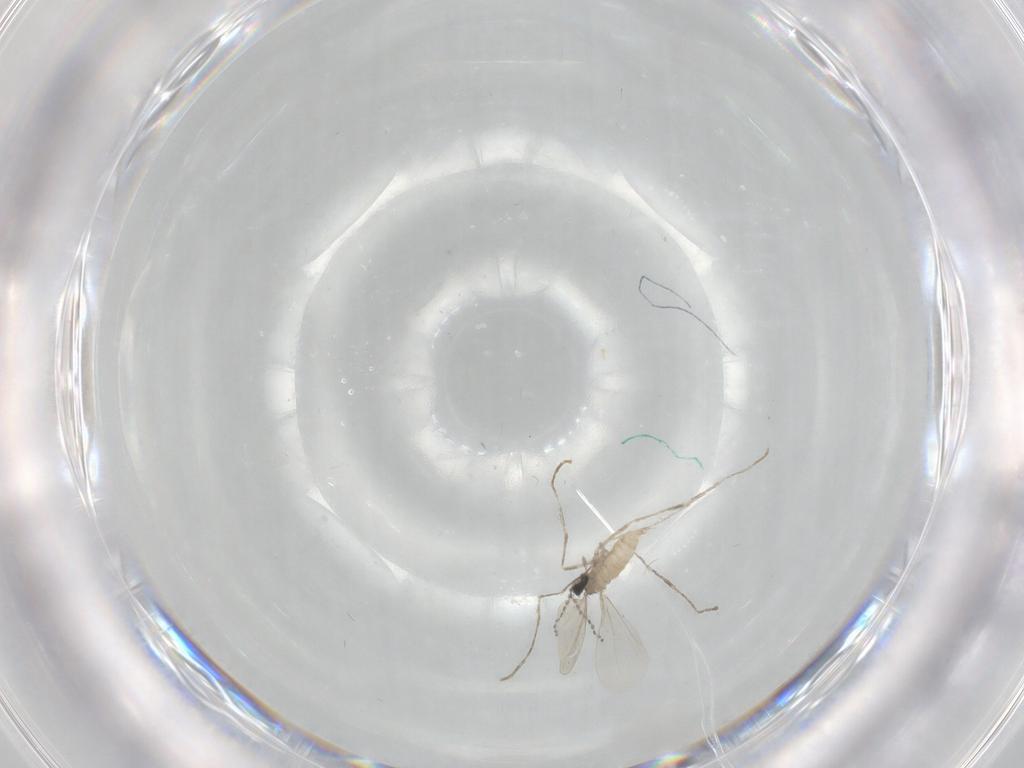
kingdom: Animalia
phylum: Arthropoda
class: Insecta
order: Diptera
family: Cecidomyiidae
